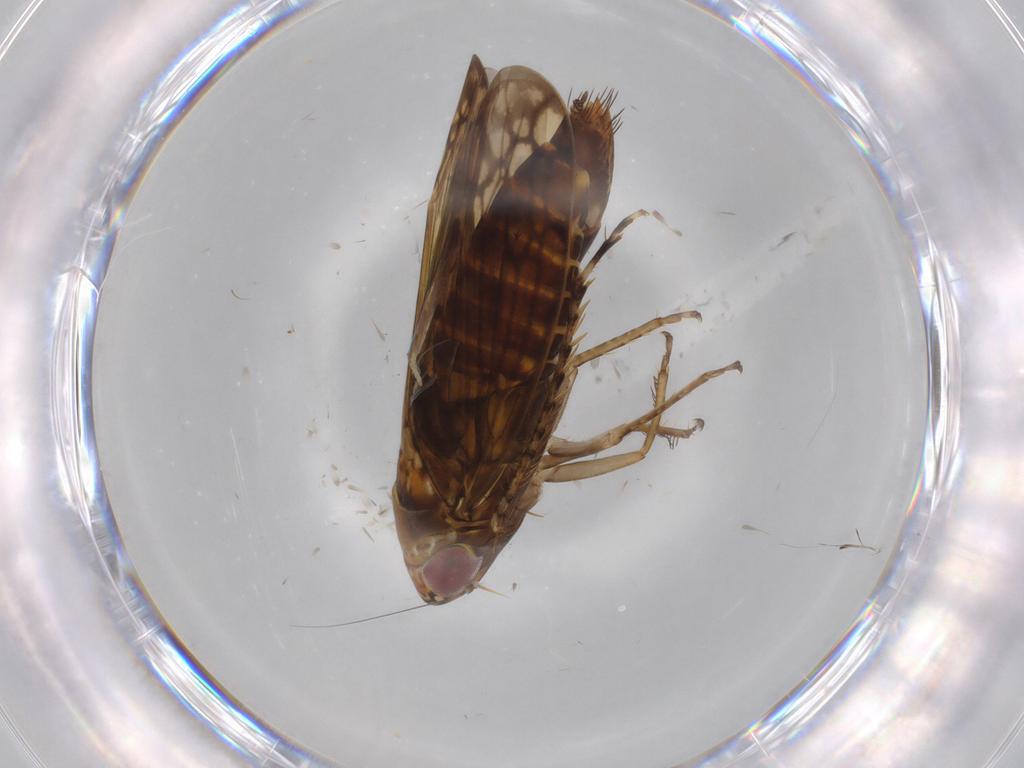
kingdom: Animalia
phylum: Arthropoda
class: Insecta
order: Hemiptera
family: Cicadellidae
